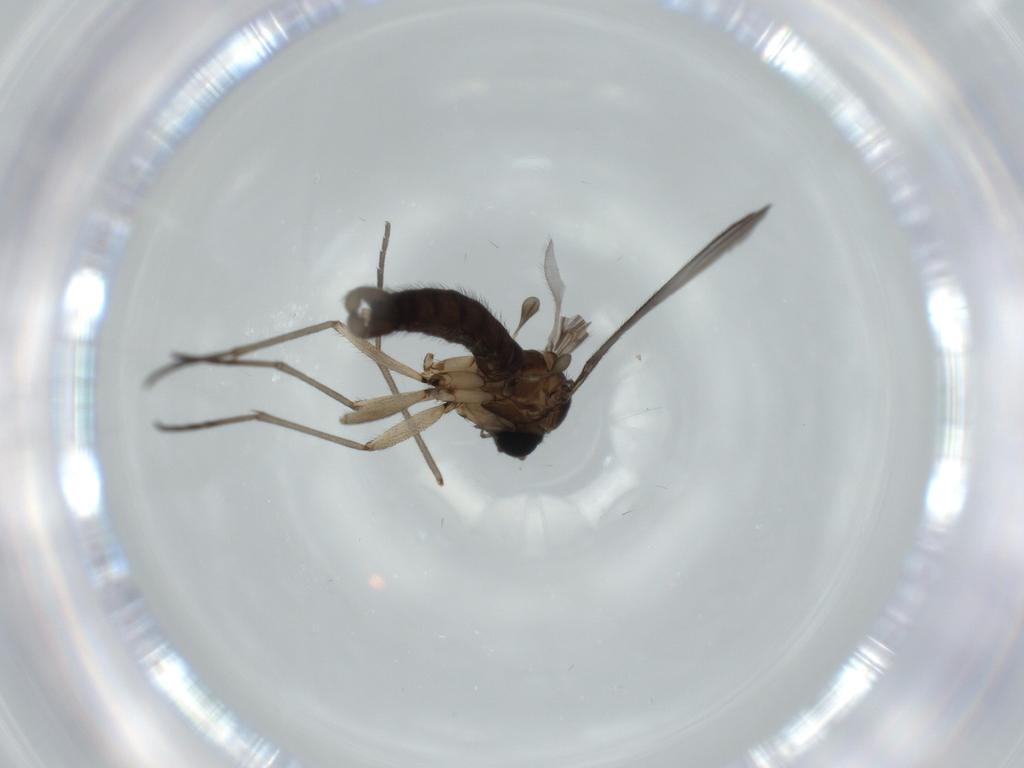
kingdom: Animalia
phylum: Arthropoda
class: Insecta
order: Diptera
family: Sciaridae
